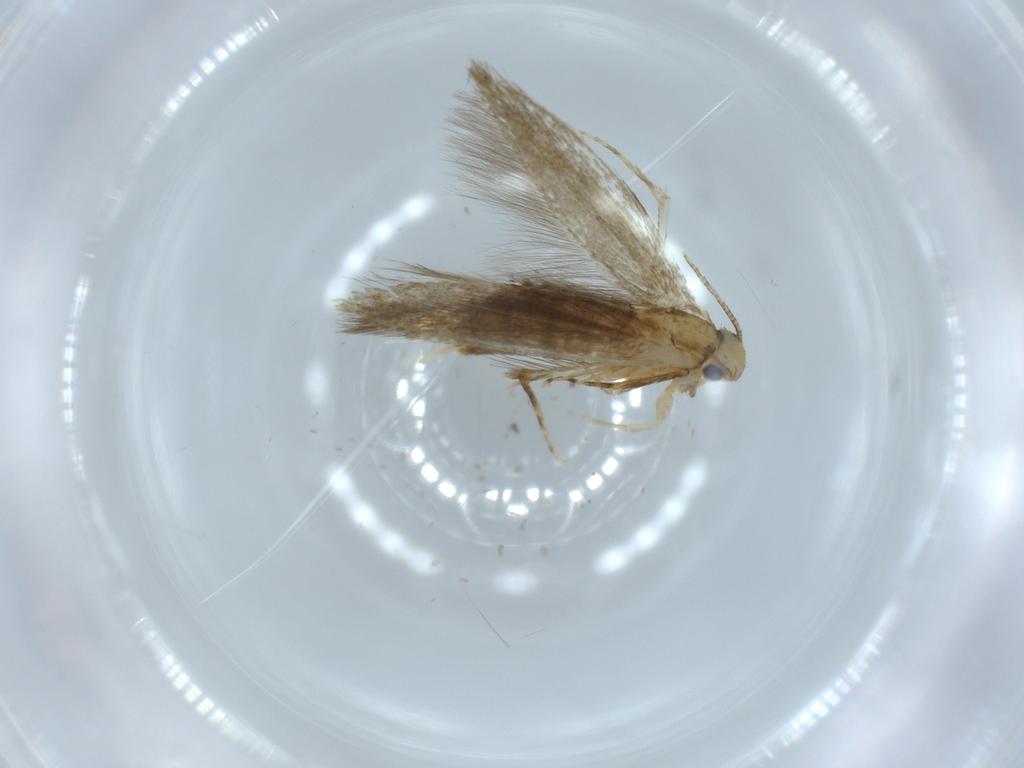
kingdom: Animalia
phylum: Arthropoda
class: Insecta
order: Lepidoptera
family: Tineidae
